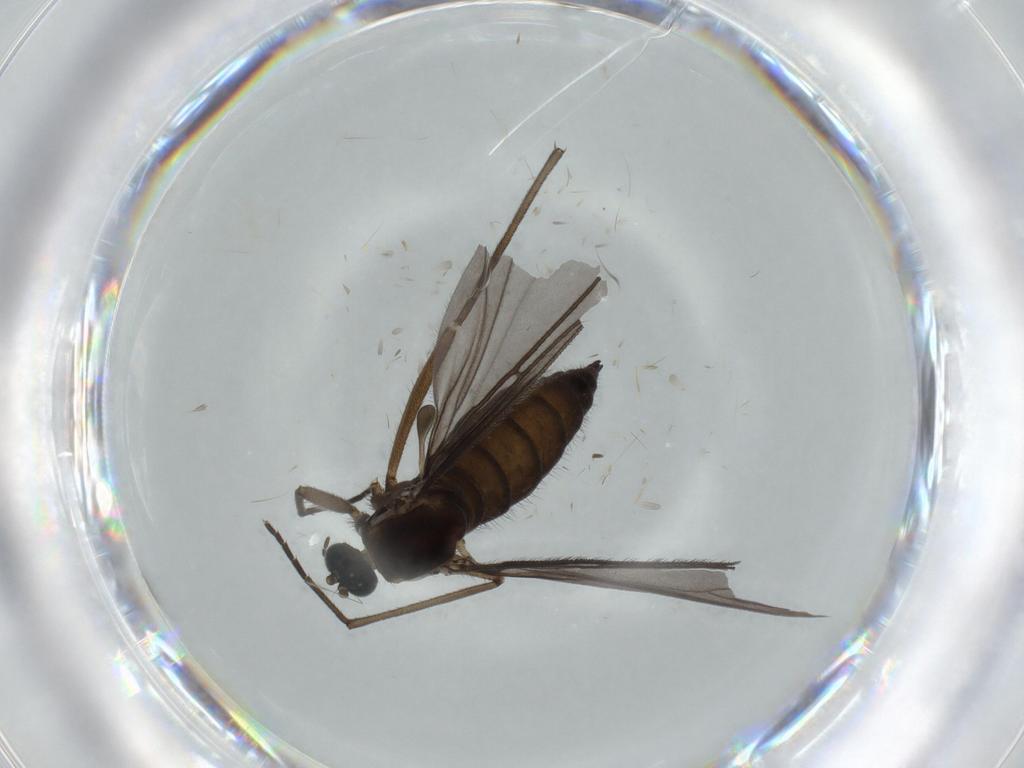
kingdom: Animalia
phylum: Arthropoda
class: Insecta
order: Diptera
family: Sciaridae
